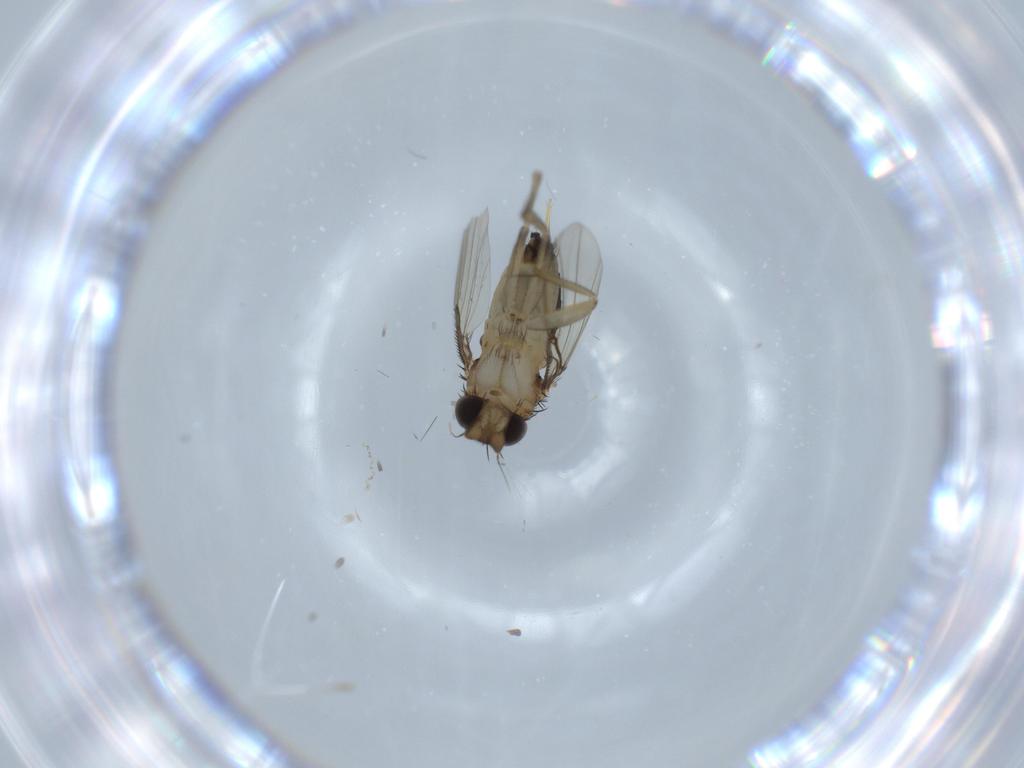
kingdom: Animalia
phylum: Arthropoda
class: Insecta
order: Diptera
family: Phoridae
